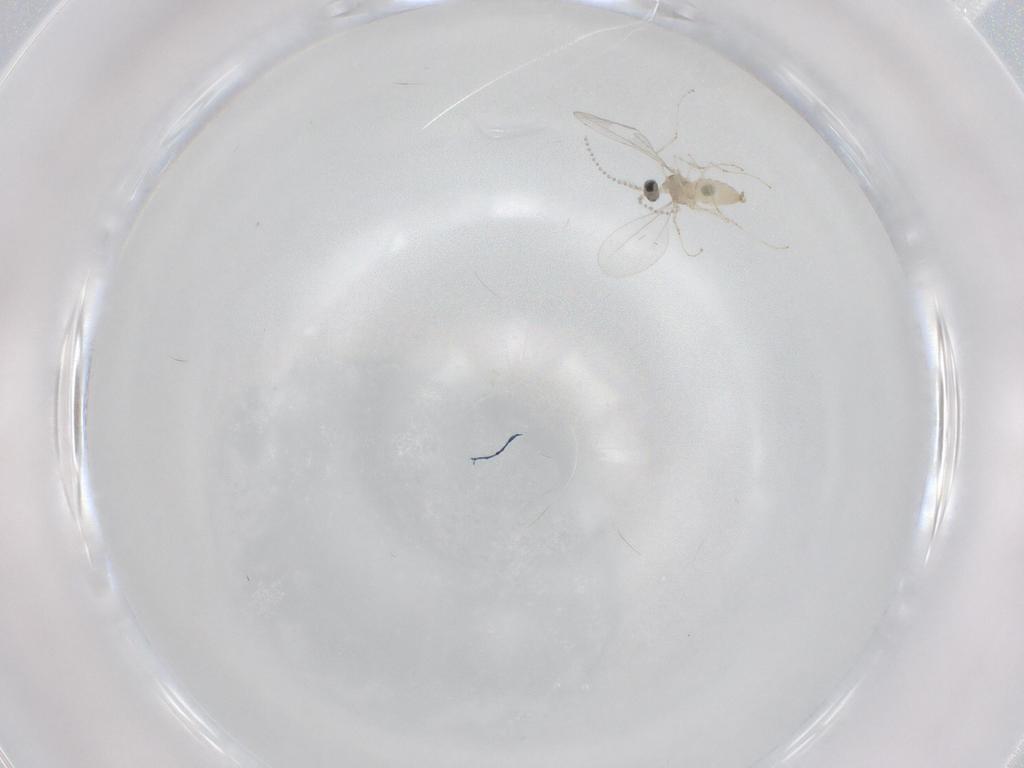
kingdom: Animalia
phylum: Arthropoda
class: Insecta
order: Diptera
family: Cecidomyiidae
